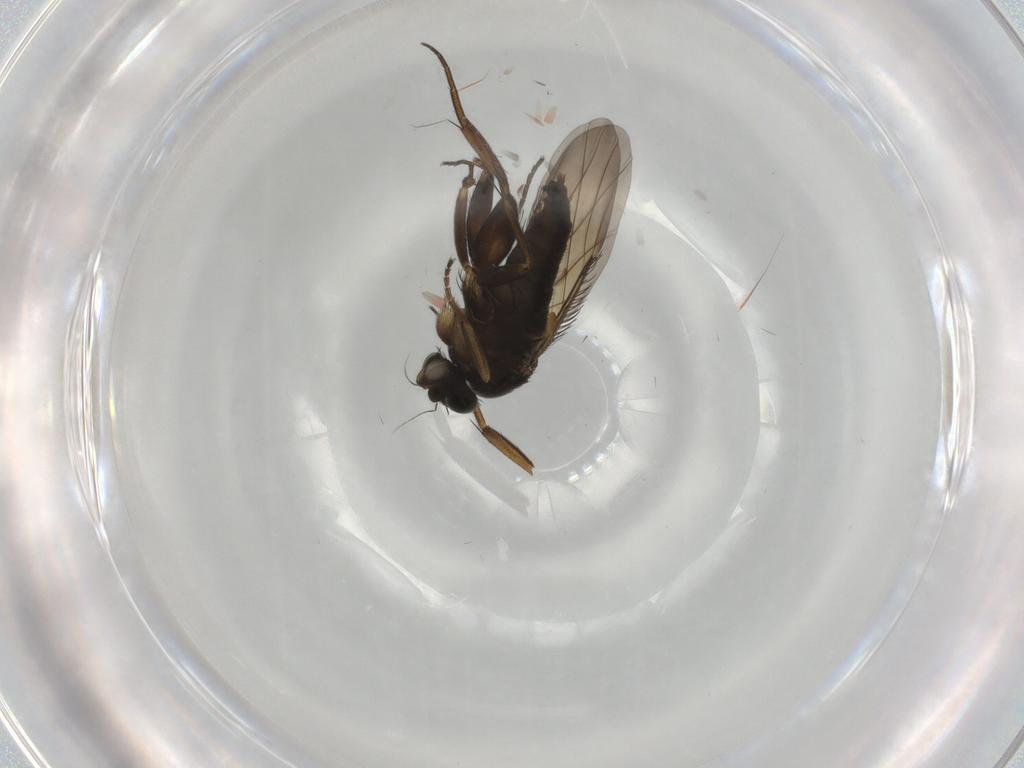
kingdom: Animalia
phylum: Arthropoda
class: Insecta
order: Diptera
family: Phoridae
